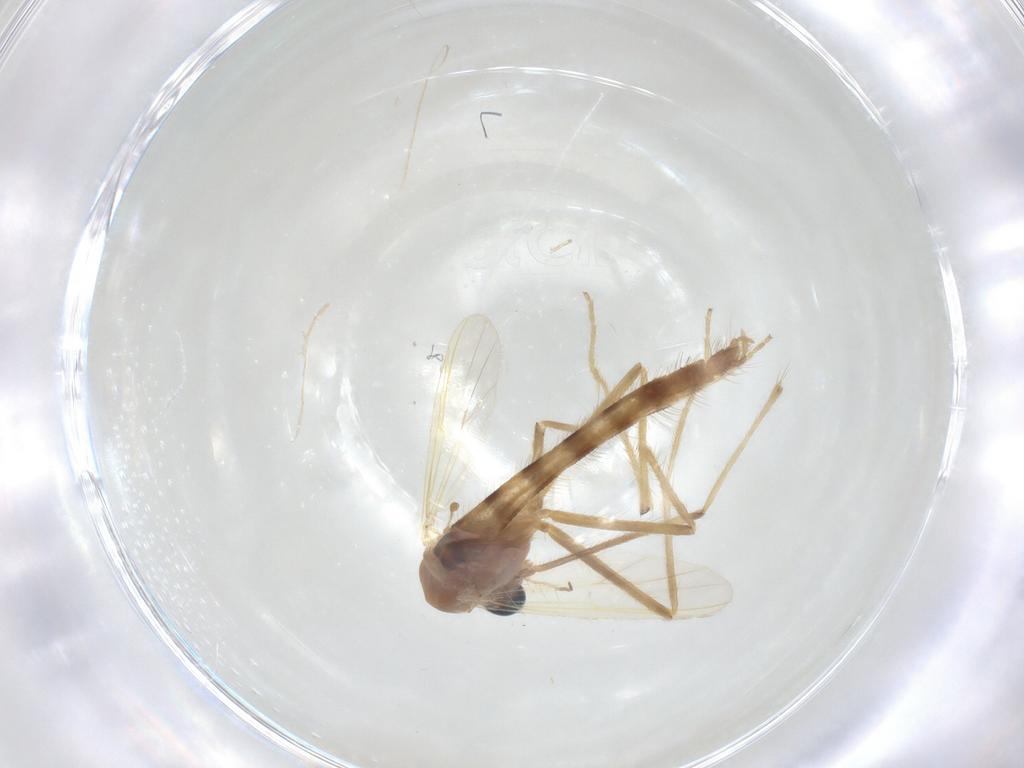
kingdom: Animalia
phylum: Arthropoda
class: Insecta
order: Diptera
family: Chironomidae
